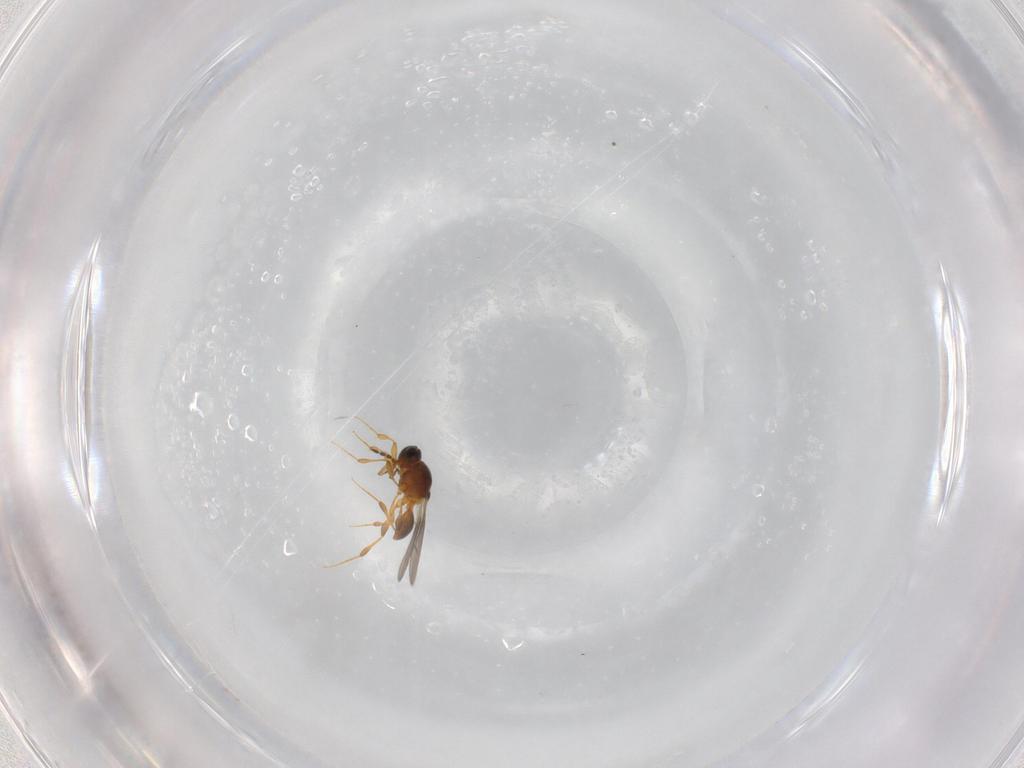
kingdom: Animalia
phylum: Arthropoda
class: Insecta
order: Hymenoptera
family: Platygastridae
